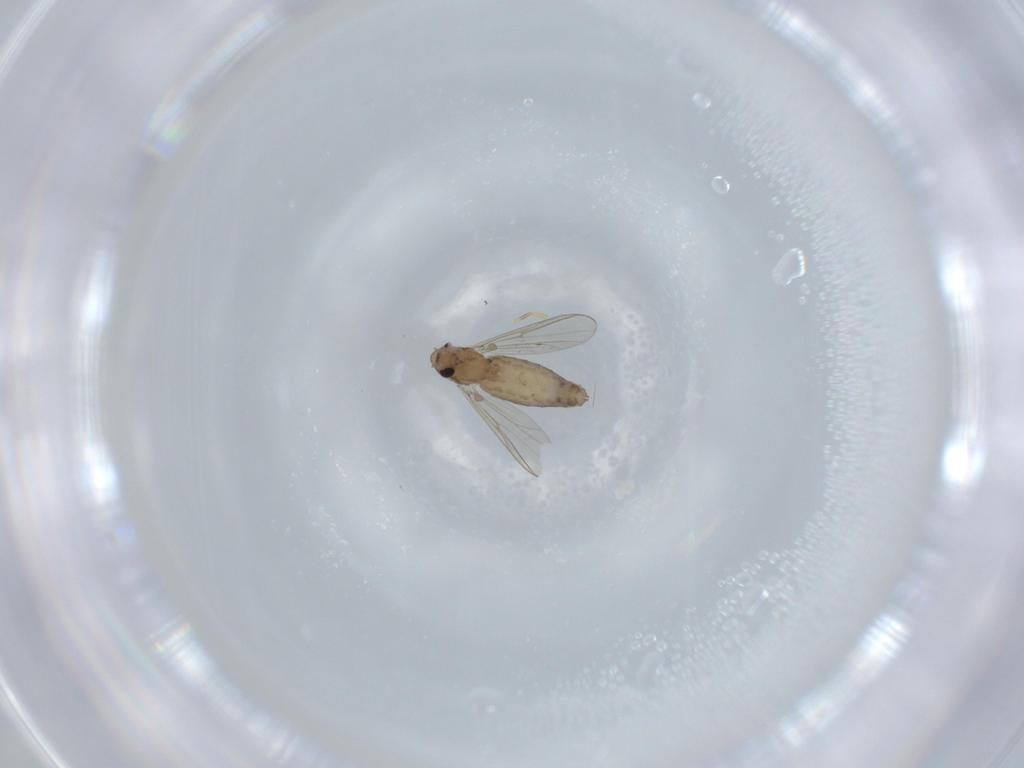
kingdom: Animalia
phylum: Arthropoda
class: Insecta
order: Diptera
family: Chironomidae
